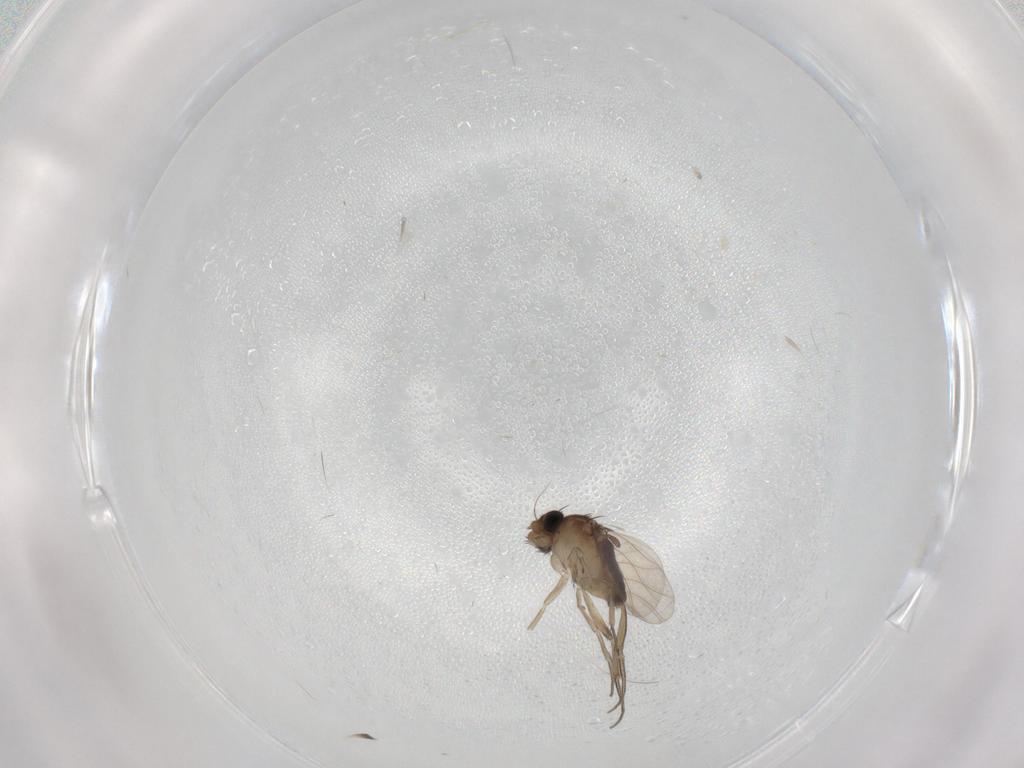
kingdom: Animalia
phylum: Arthropoda
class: Insecta
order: Diptera
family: Phoridae
